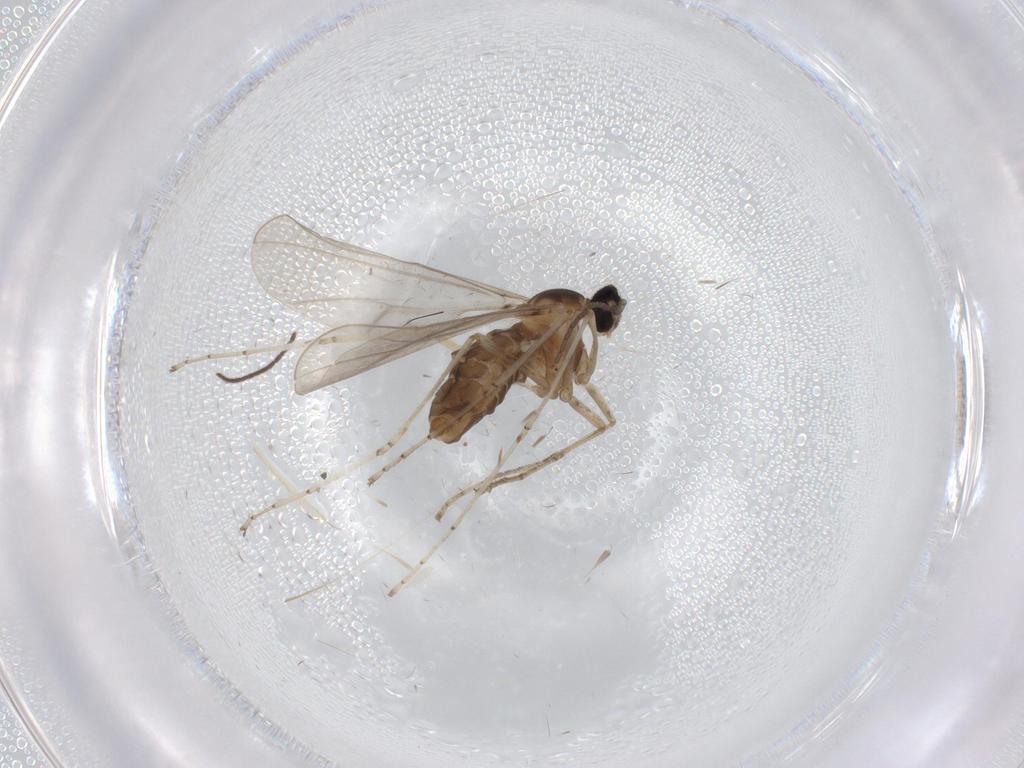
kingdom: Animalia
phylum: Arthropoda
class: Insecta
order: Diptera
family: Cecidomyiidae
